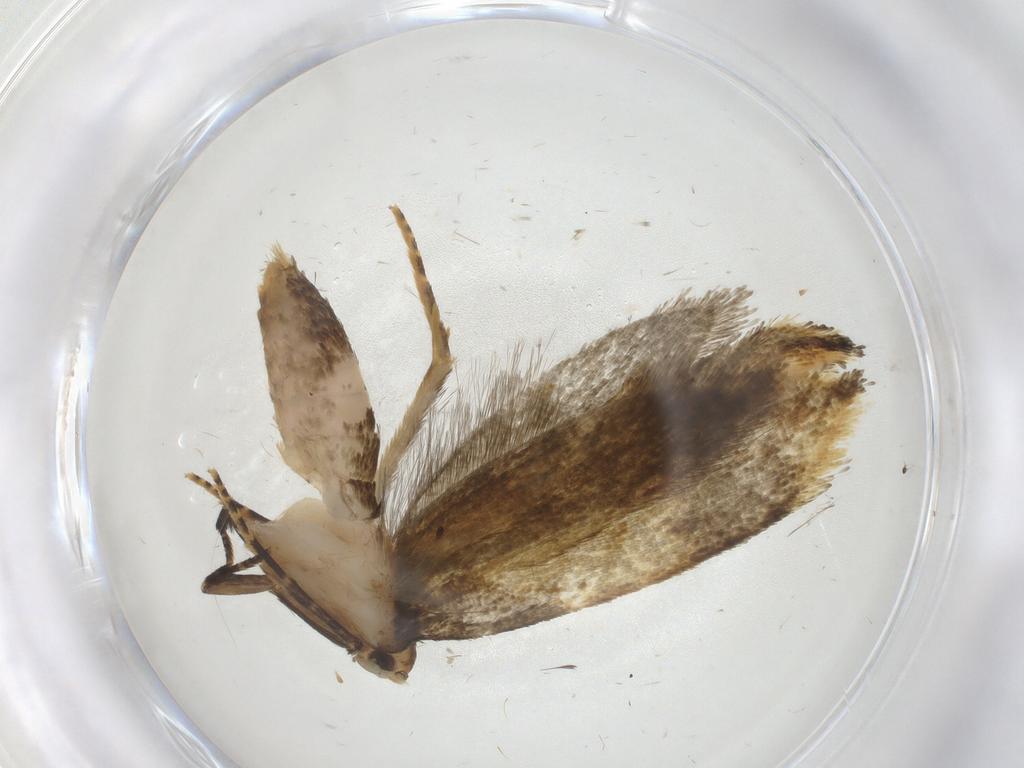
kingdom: Animalia
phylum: Arthropoda
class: Insecta
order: Lepidoptera
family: Pieridae
